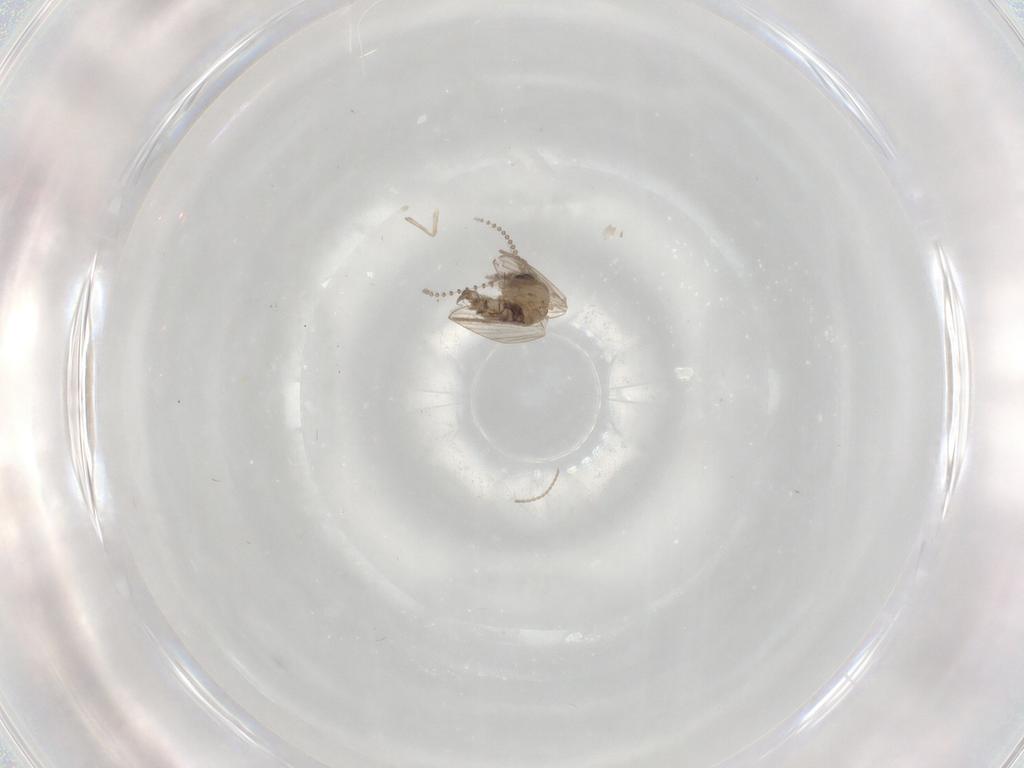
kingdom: Animalia
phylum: Arthropoda
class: Insecta
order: Diptera
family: Psychodidae
